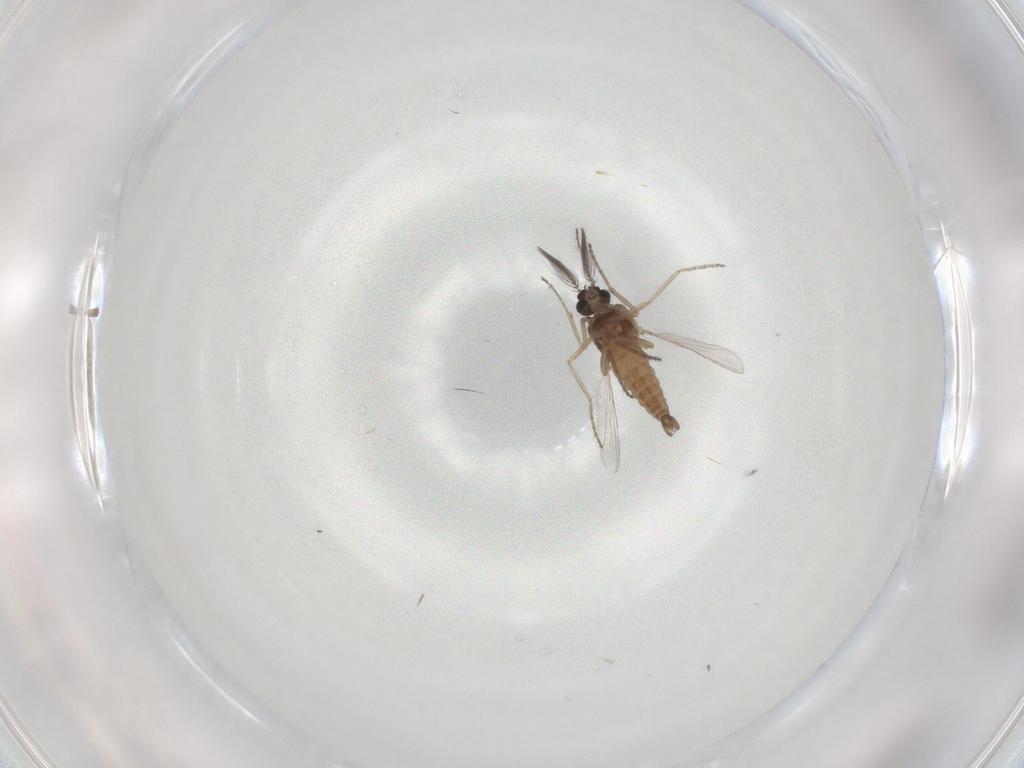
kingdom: Animalia
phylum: Arthropoda
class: Insecta
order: Diptera
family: Ceratopogonidae
